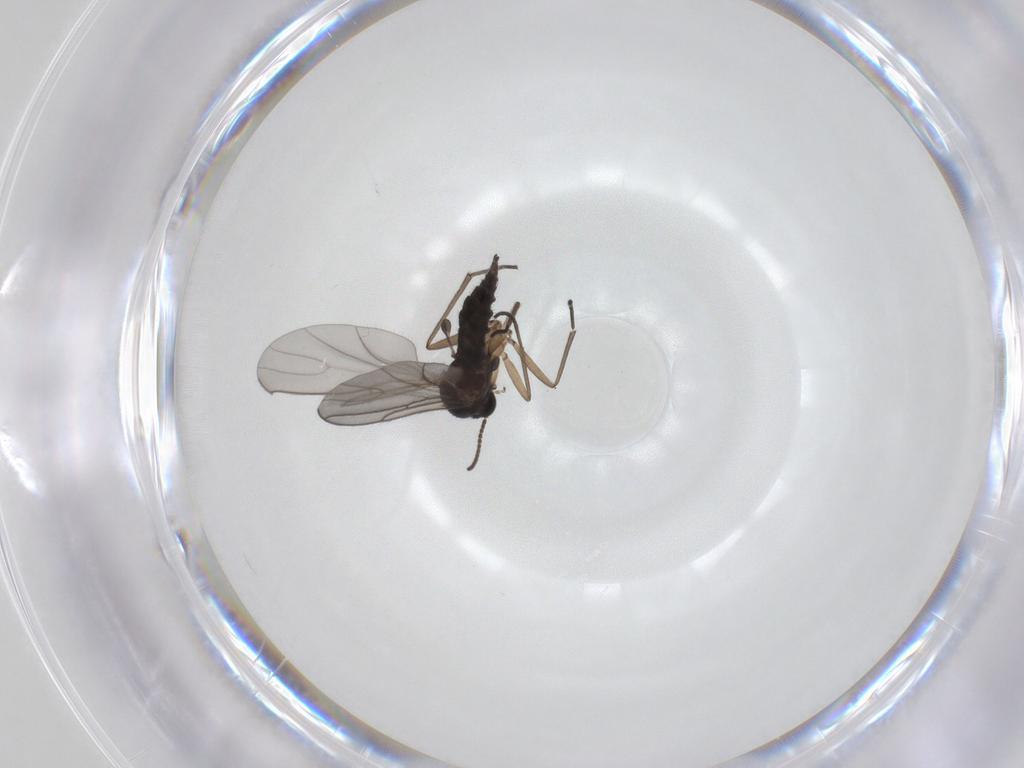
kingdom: Animalia
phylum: Arthropoda
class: Insecta
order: Diptera
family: Sciaridae
